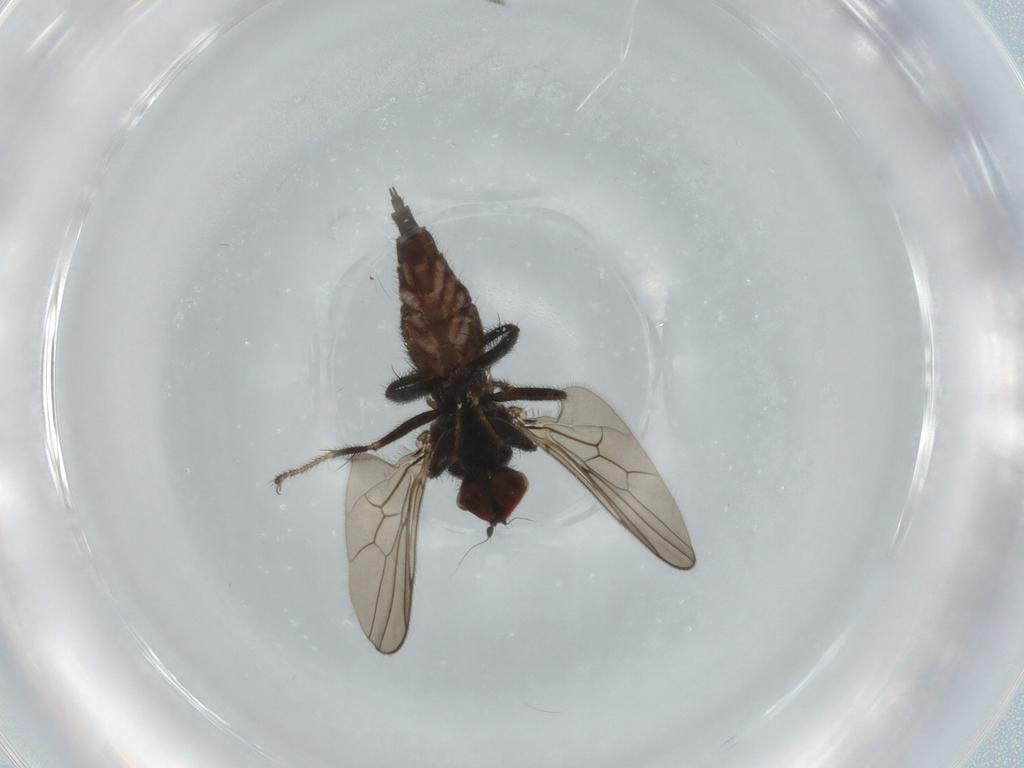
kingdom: Animalia
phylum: Arthropoda
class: Insecta
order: Diptera
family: Hybotidae
